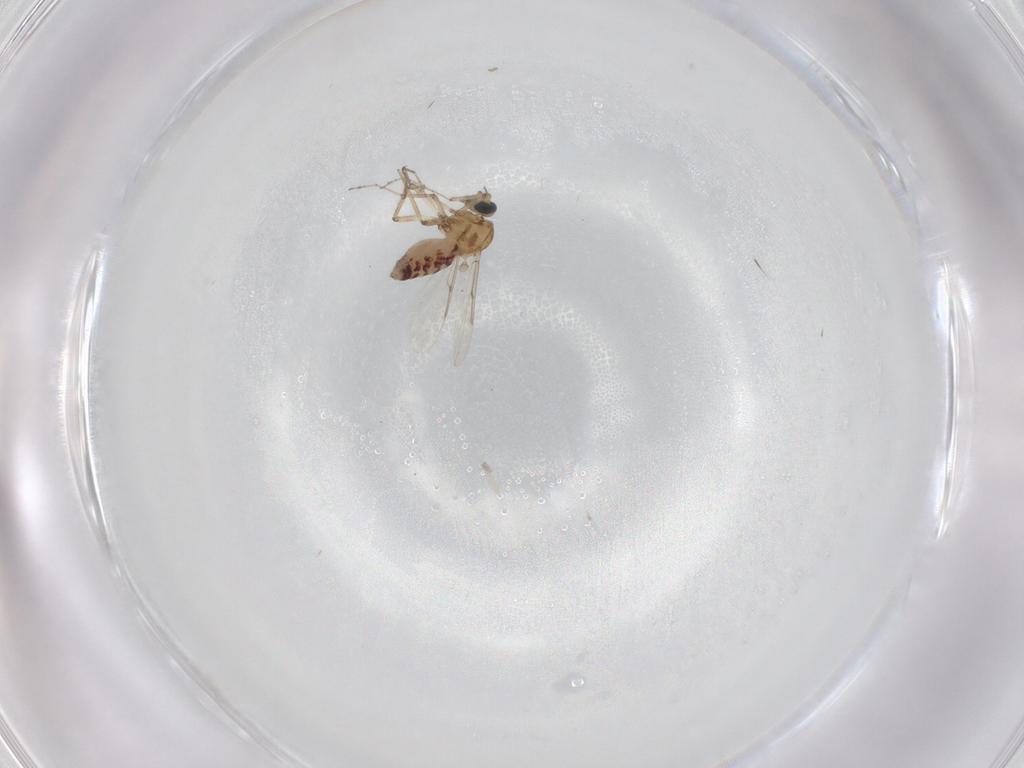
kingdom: Animalia
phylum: Arthropoda
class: Insecta
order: Diptera
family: Ceratopogonidae
